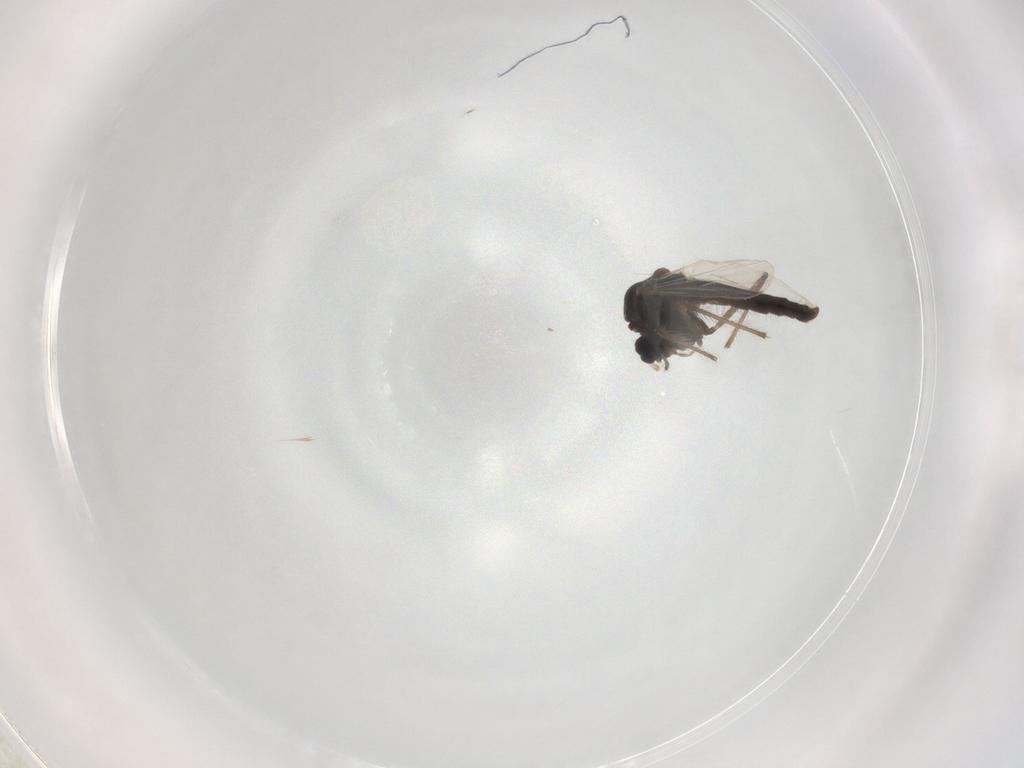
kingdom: Animalia
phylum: Arthropoda
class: Insecta
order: Diptera
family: Chironomidae
